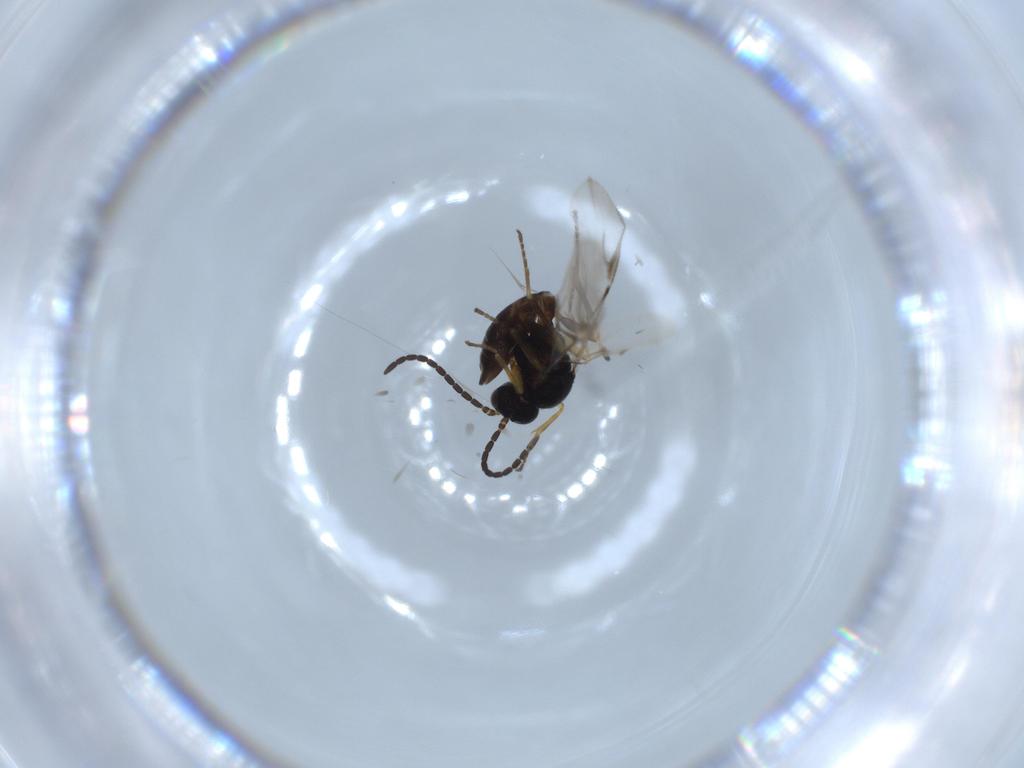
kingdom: Animalia
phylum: Arthropoda
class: Insecta
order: Hymenoptera
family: Braconidae
